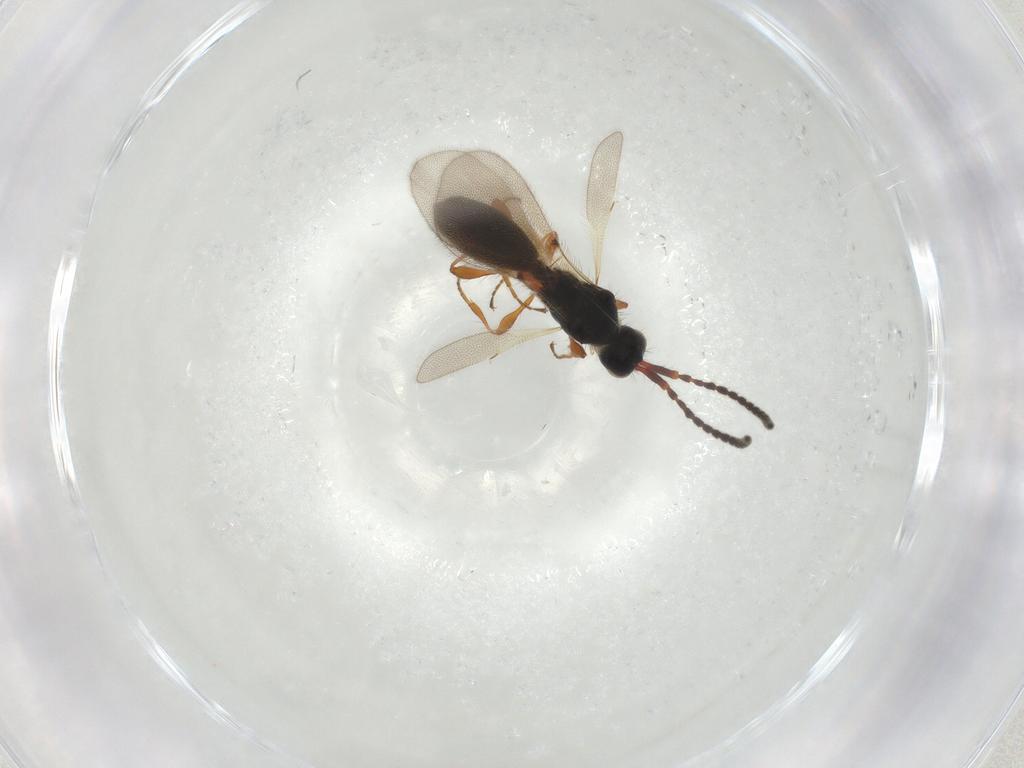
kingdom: Animalia
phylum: Arthropoda
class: Insecta
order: Hymenoptera
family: Diapriidae
